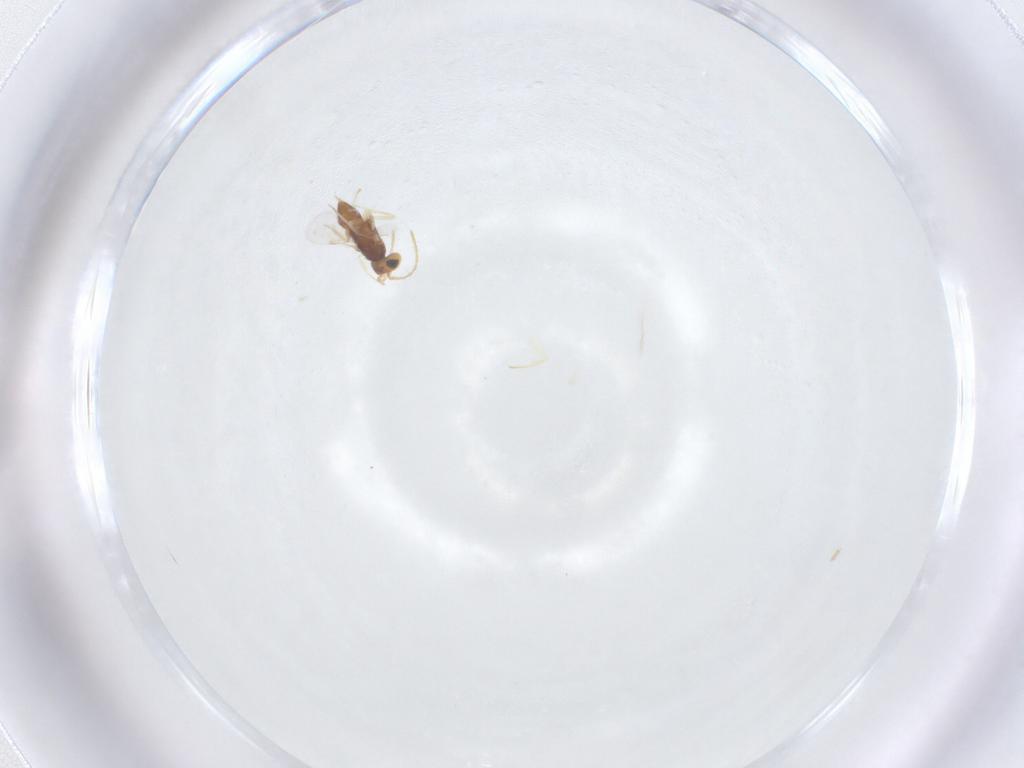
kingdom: Animalia
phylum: Arthropoda
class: Insecta
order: Hymenoptera
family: Encyrtidae
